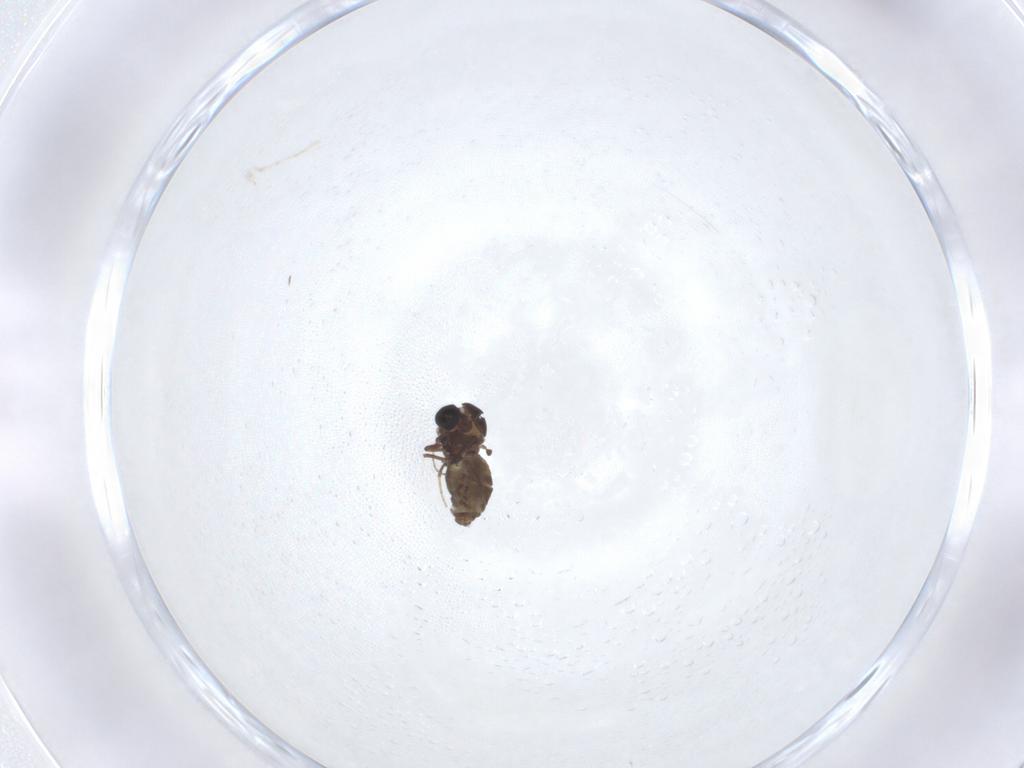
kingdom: Animalia
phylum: Arthropoda
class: Insecta
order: Diptera
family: Ceratopogonidae
